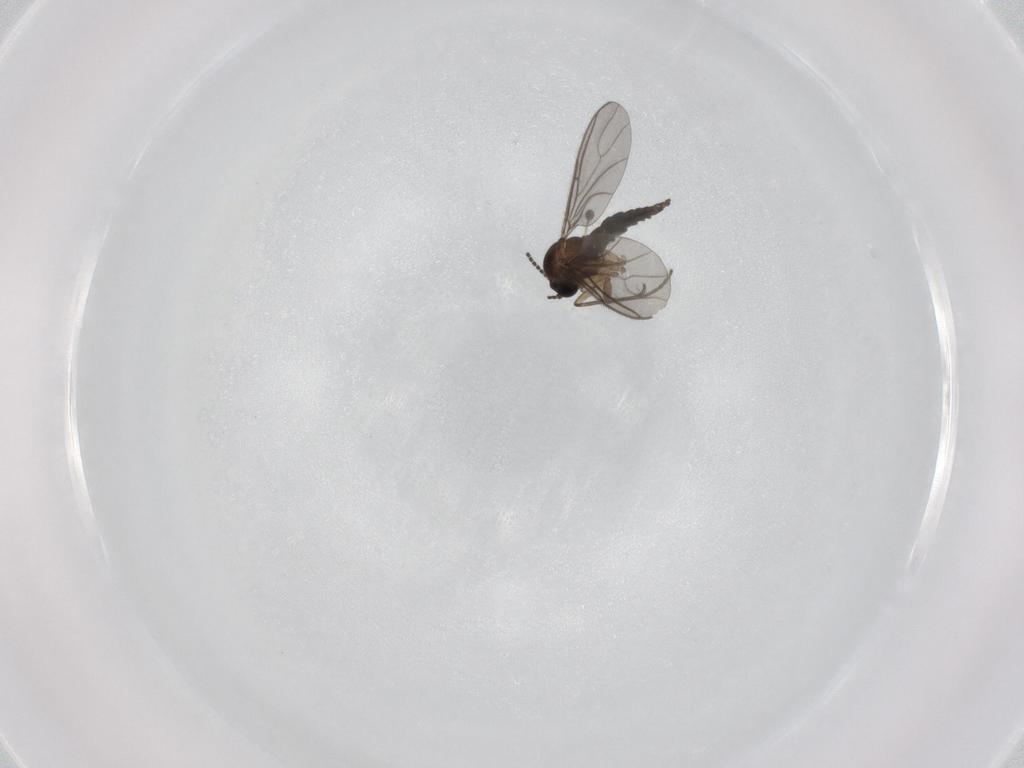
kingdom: Animalia
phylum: Arthropoda
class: Insecta
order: Diptera
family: Sciaridae
